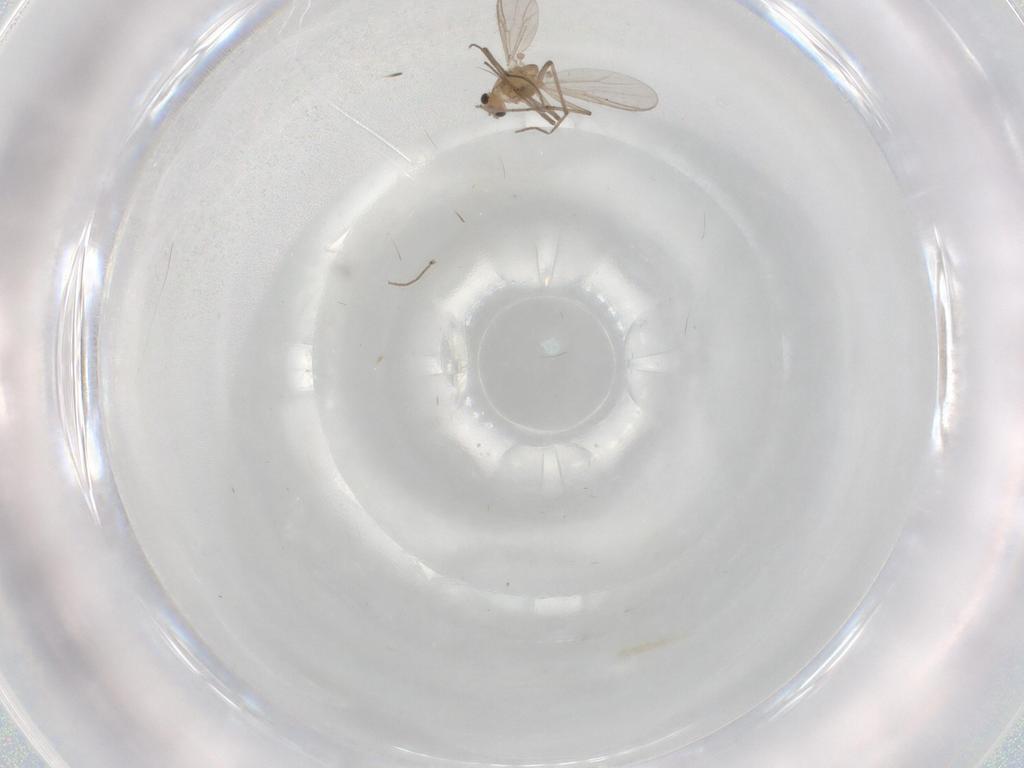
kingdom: Animalia
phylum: Arthropoda
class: Insecta
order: Diptera
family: Chironomidae
